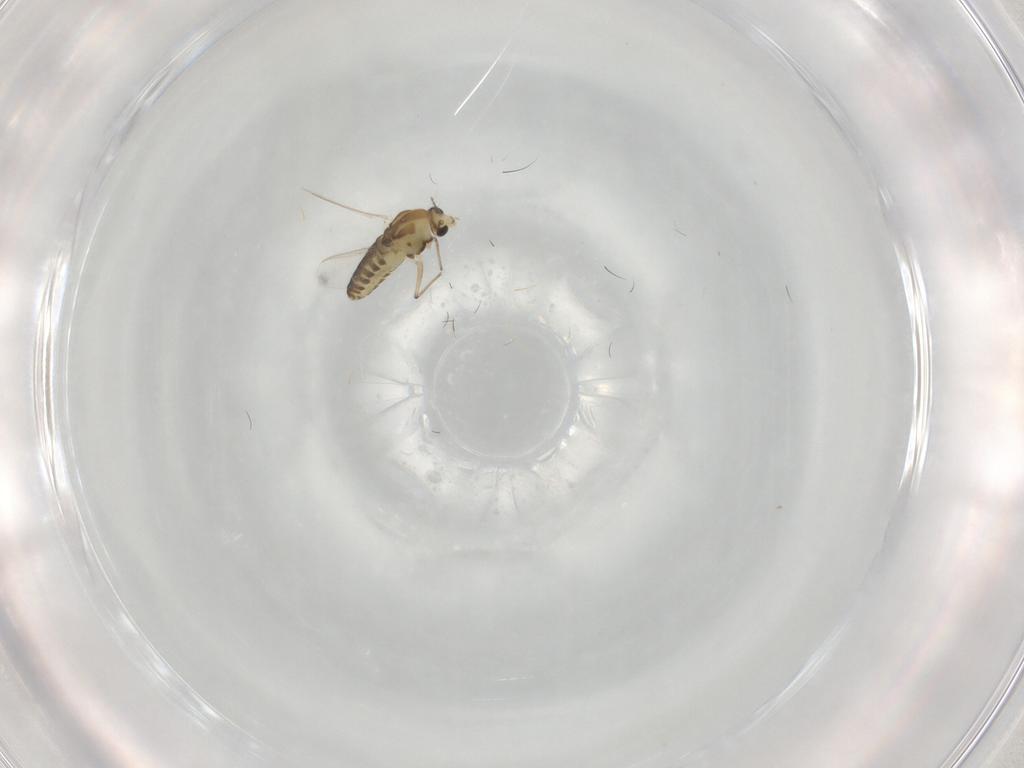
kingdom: Animalia
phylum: Arthropoda
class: Insecta
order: Diptera
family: Chironomidae
